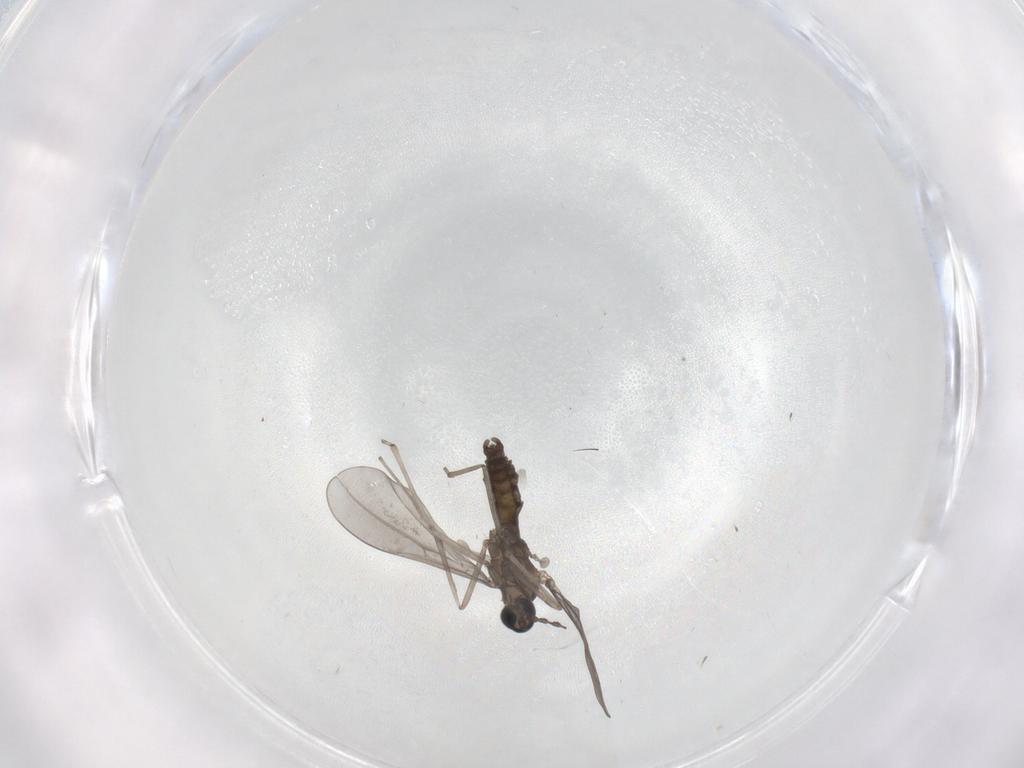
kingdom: Animalia
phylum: Arthropoda
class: Insecta
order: Diptera
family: Cecidomyiidae
